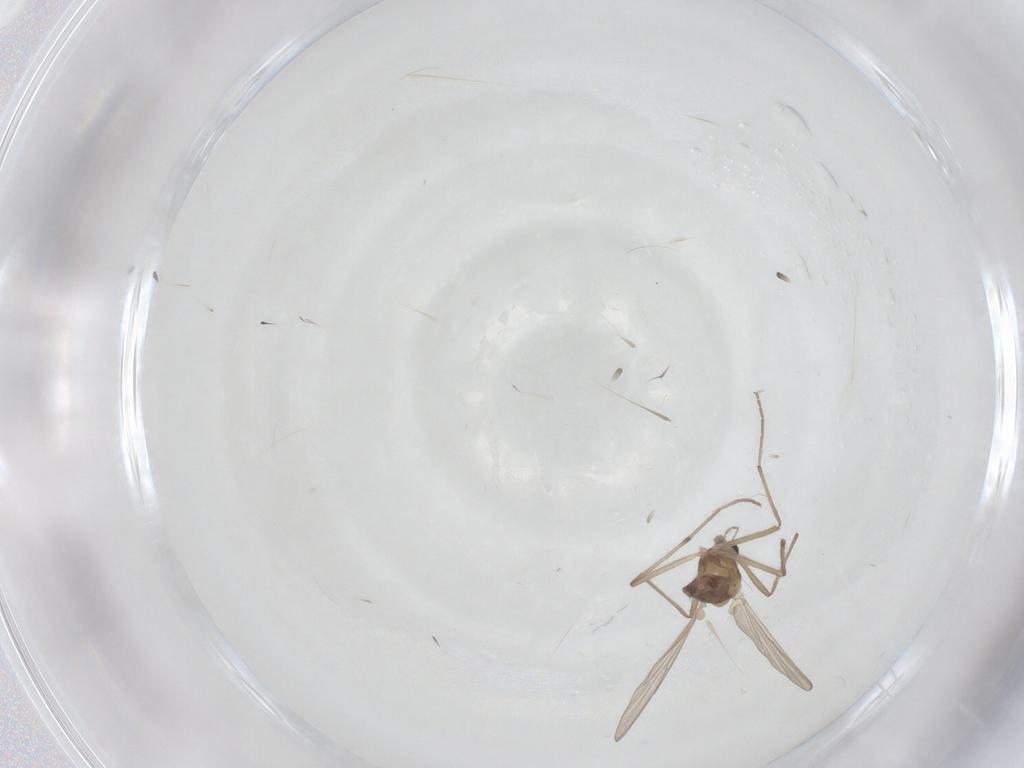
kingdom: Animalia
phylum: Arthropoda
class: Insecta
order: Diptera
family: Chironomidae
